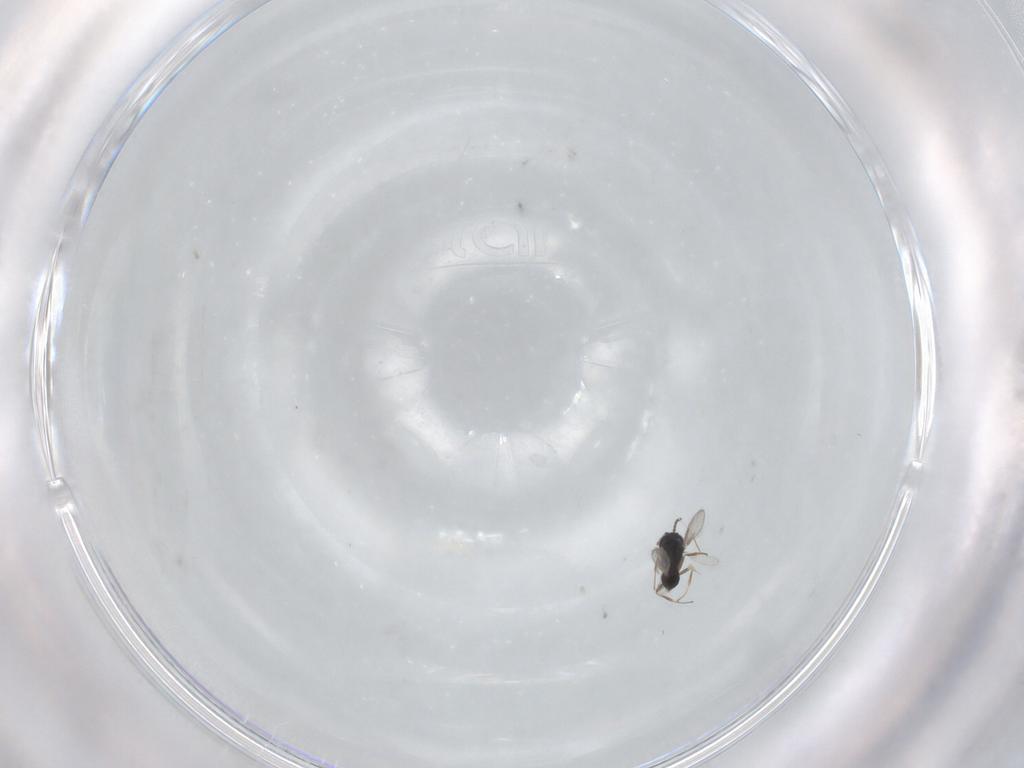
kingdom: Animalia
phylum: Arthropoda
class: Insecta
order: Hymenoptera
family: Scelionidae
